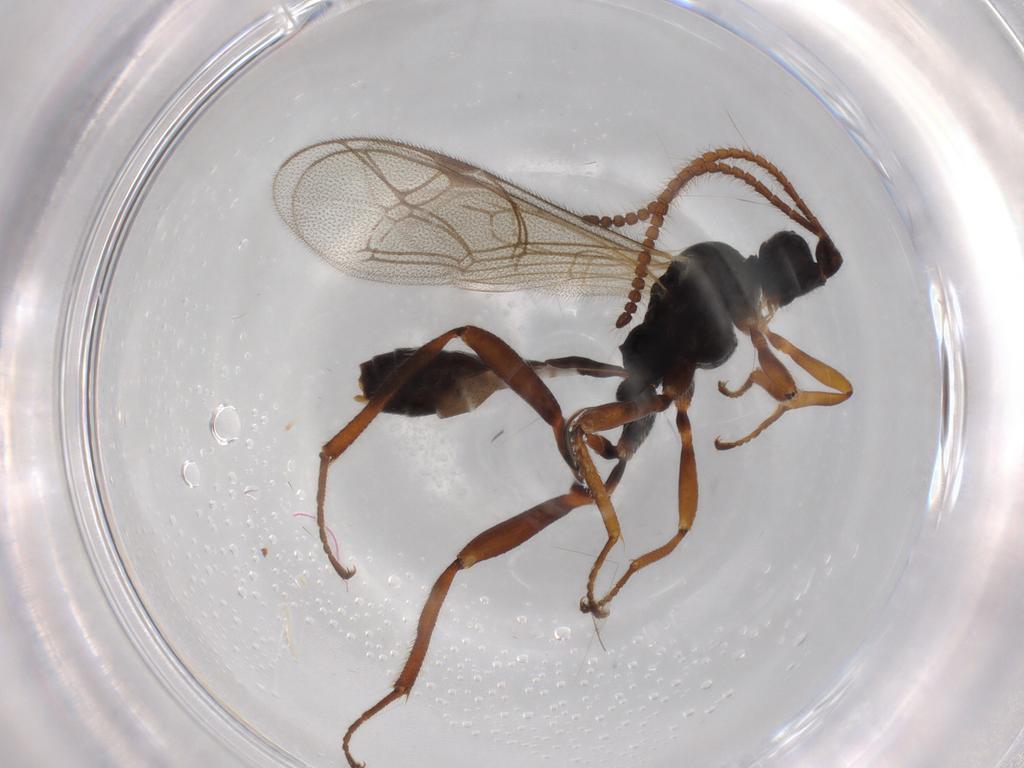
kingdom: Animalia
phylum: Arthropoda
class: Insecta
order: Hymenoptera
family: Ichneumonidae
